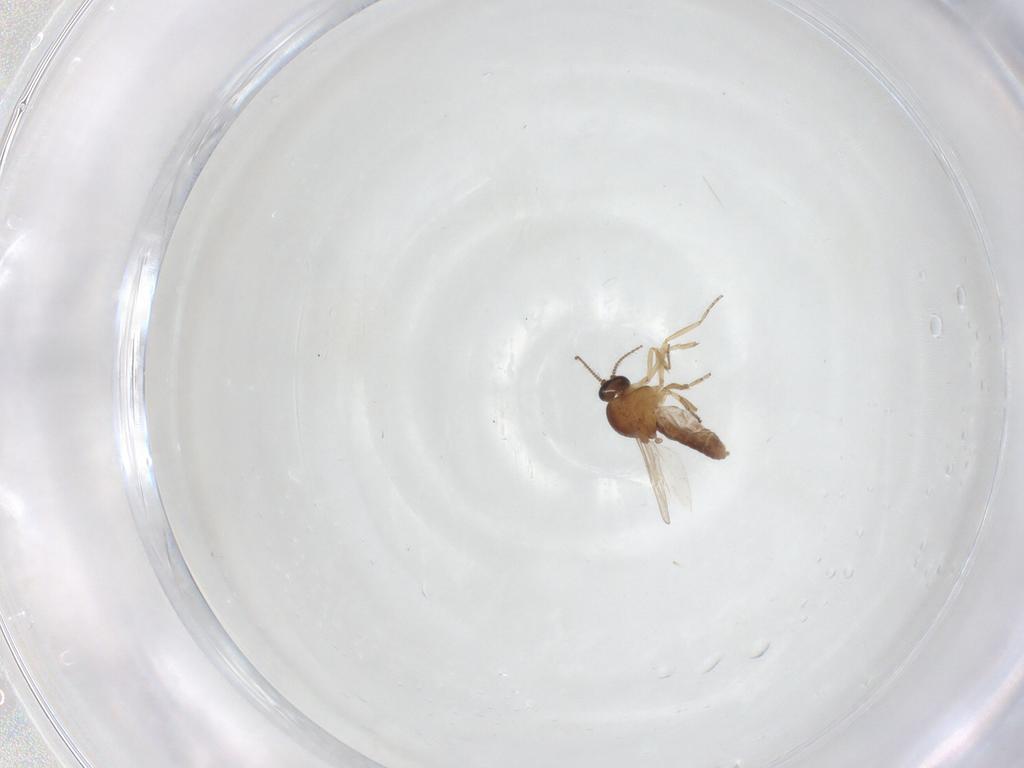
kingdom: Animalia
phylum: Arthropoda
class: Insecta
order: Diptera
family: Ceratopogonidae
